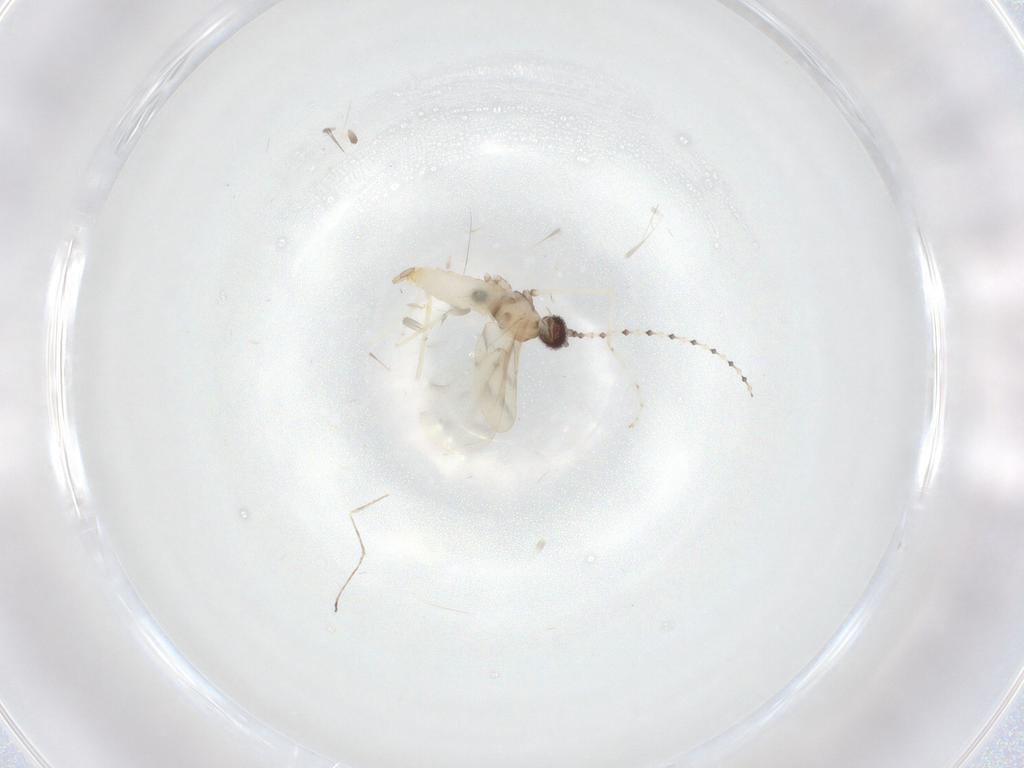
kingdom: Animalia
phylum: Arthropoda
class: Insecta
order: Diptera
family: Cecidomyiidae
